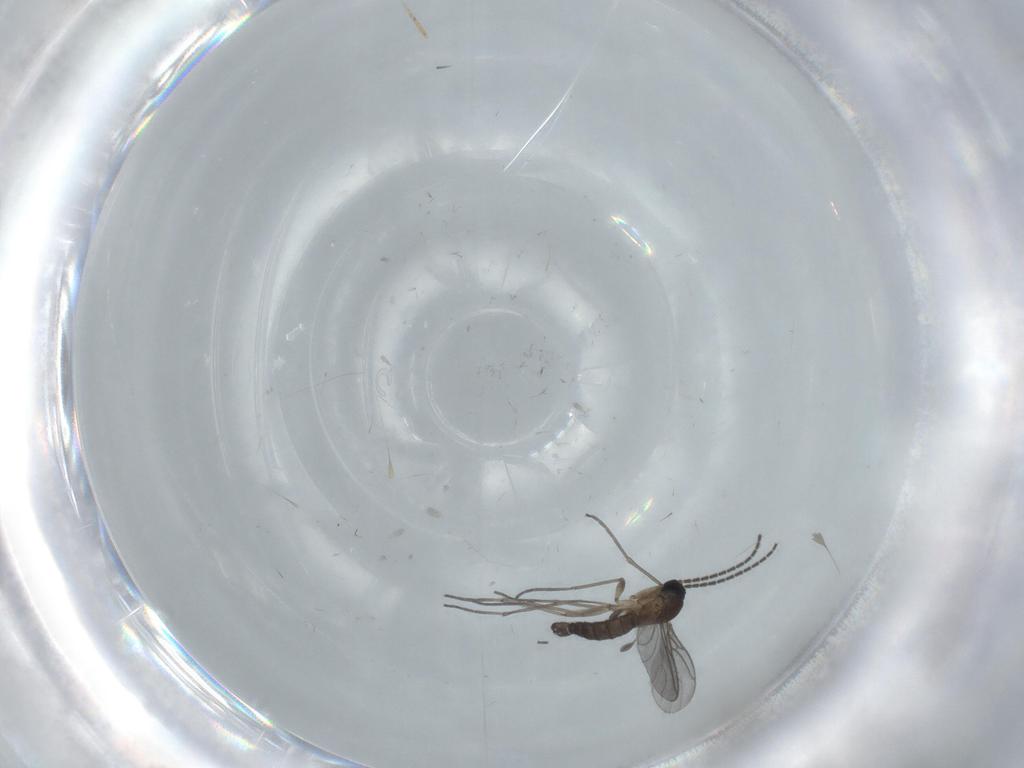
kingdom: Animalia
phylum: Arthropoda
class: Insecta
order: Diptera
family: Sciaridae
